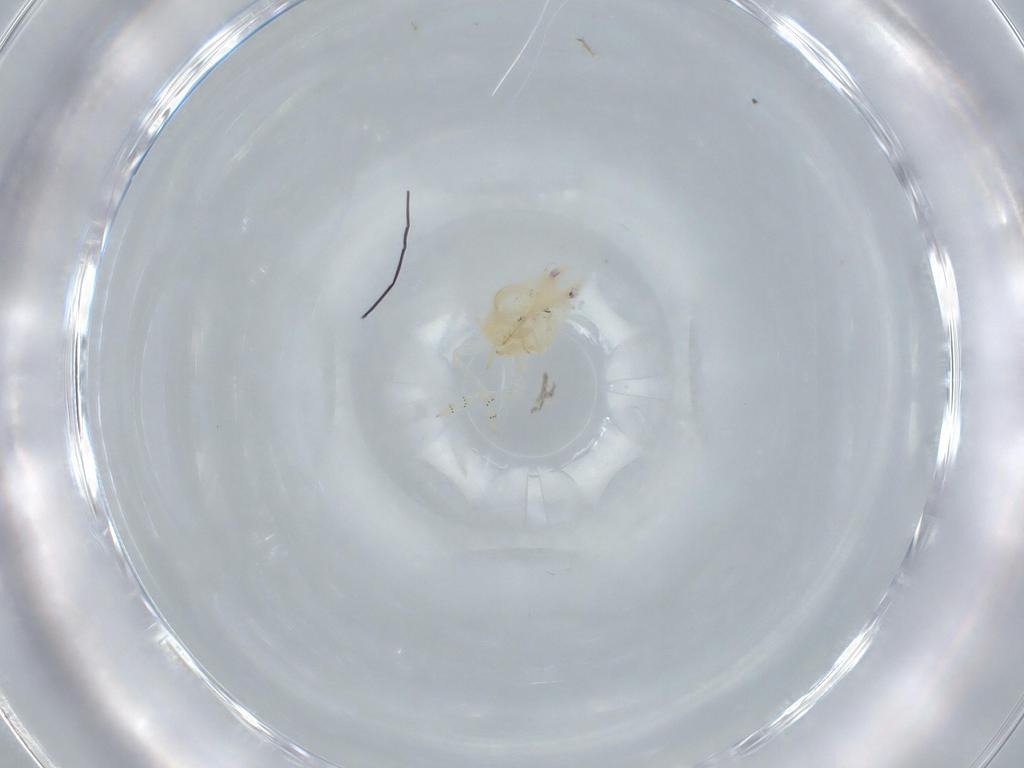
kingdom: Animalia
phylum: Arthropoda
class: Insecta
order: Hemiptera
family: Flatidae
